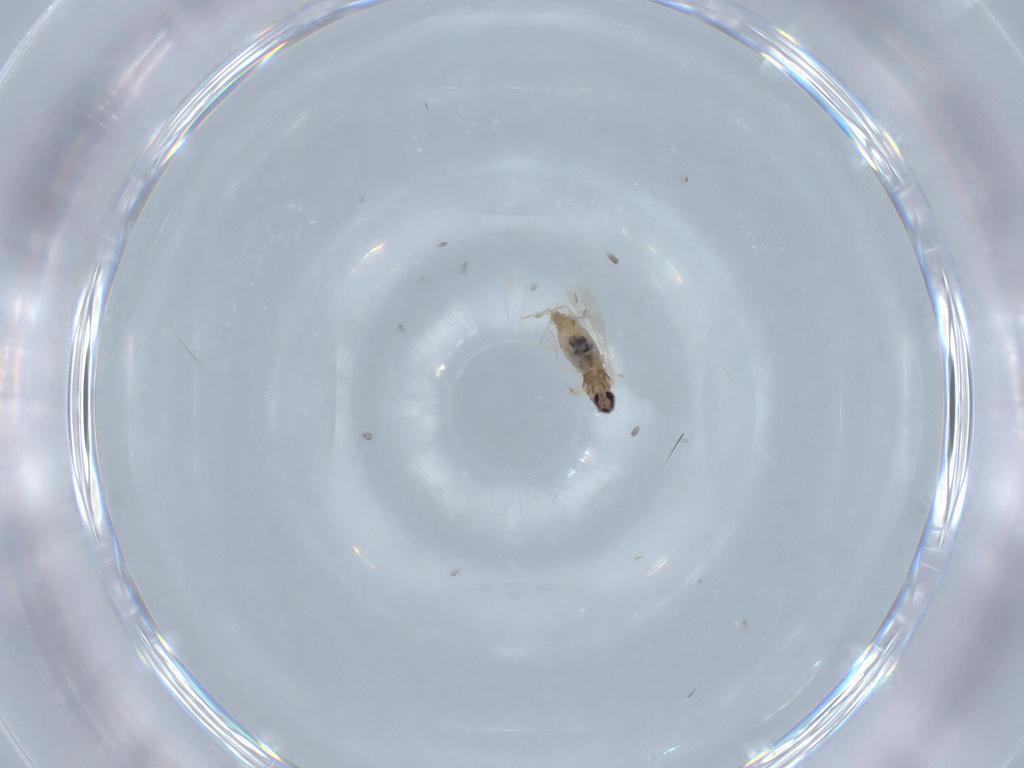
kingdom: Animalia
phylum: Arthropoda
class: Insecta
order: Diptera
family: Cecidomyiidae
